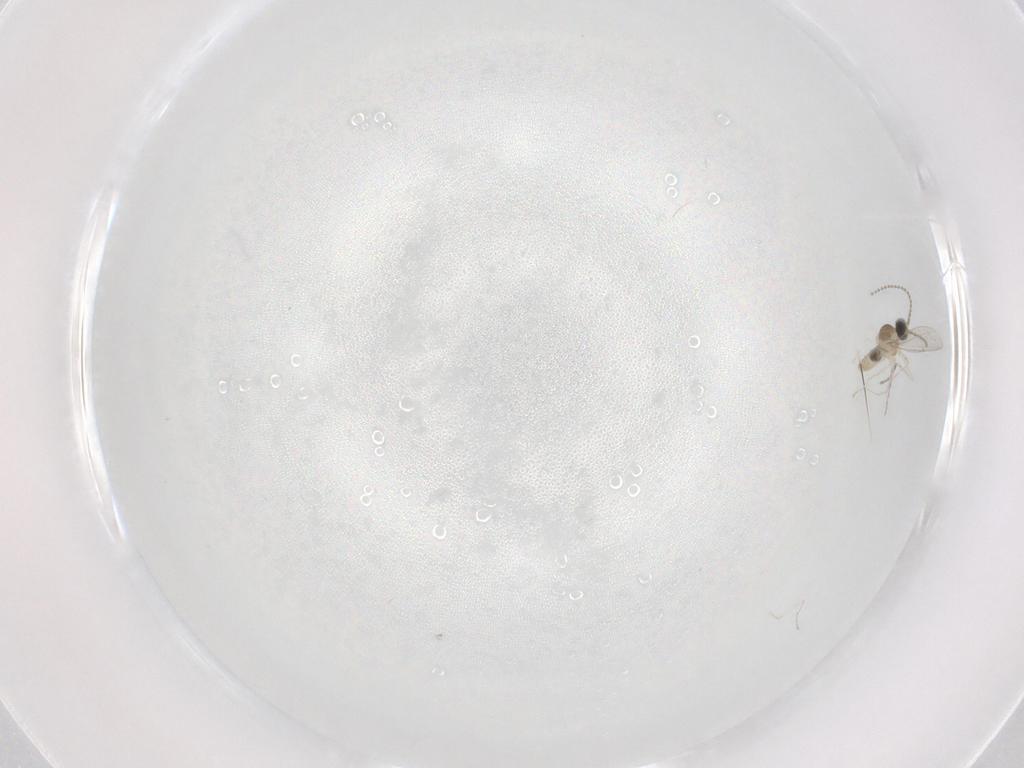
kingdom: Animalia
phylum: Arthropoda
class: Insecta
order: Diptera
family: Cecidomyiidae
